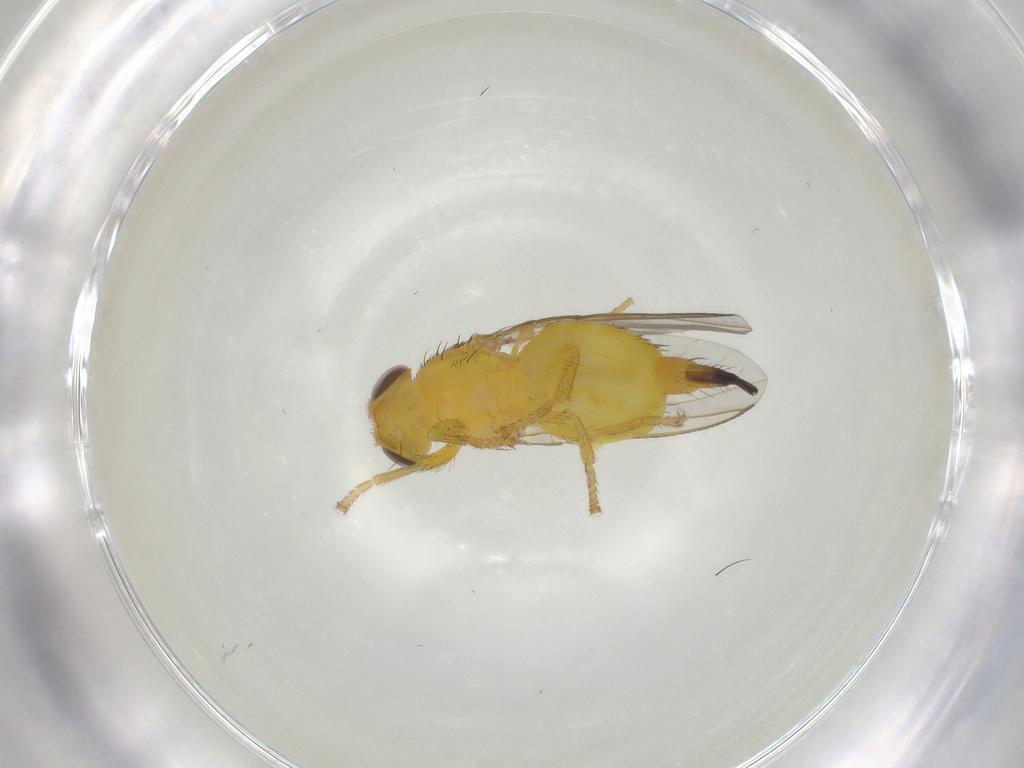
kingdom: Animalia
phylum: Arthropoda
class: Insecta
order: Diptera
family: Fergusoninidae
